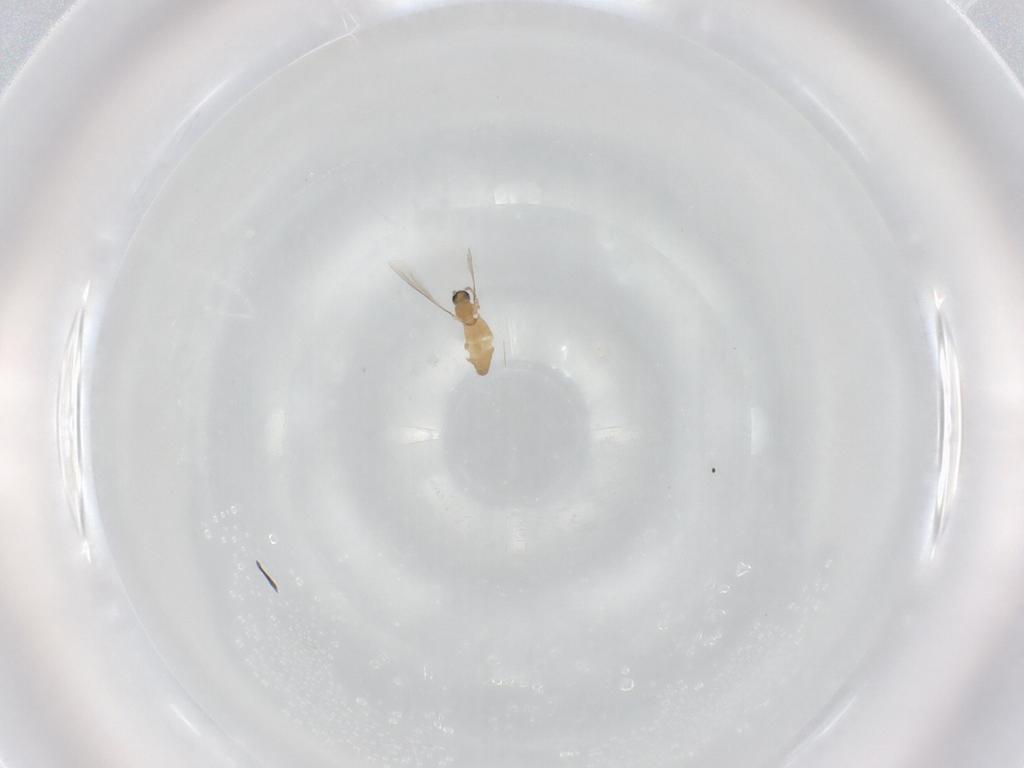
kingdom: Animalia
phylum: Arthropoda
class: Insecta
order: Diptera
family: Cecidomyiidae
